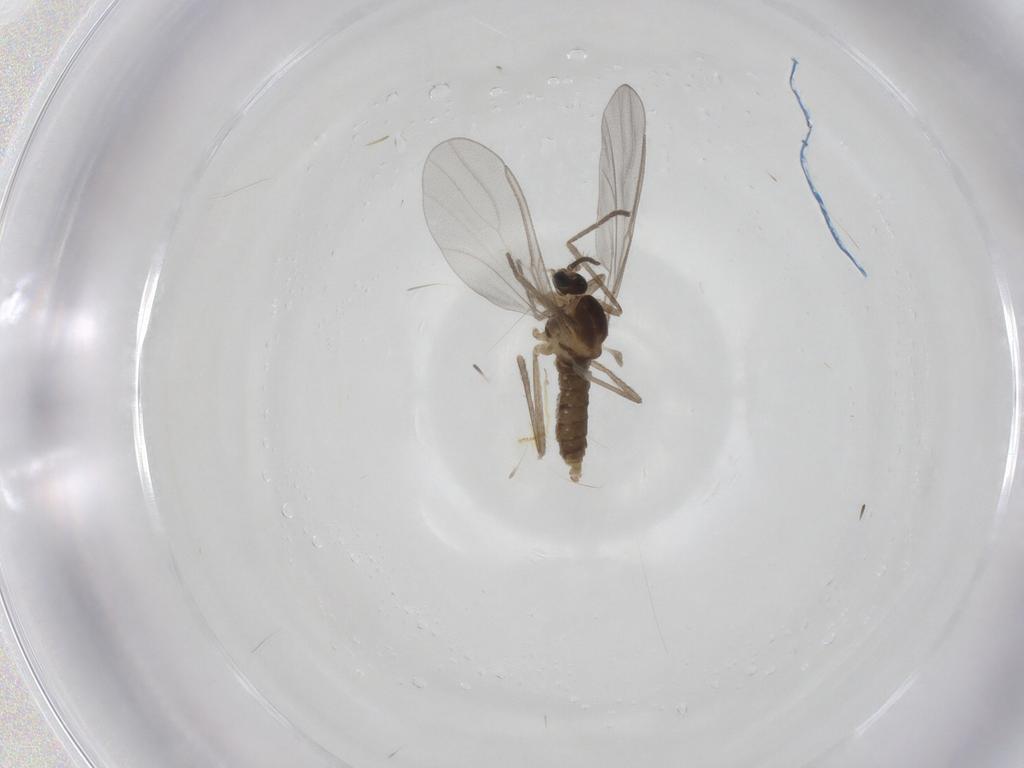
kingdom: Animalia
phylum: Arthropoda
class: Insecta
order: Diptera
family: Cecidomyiidae
